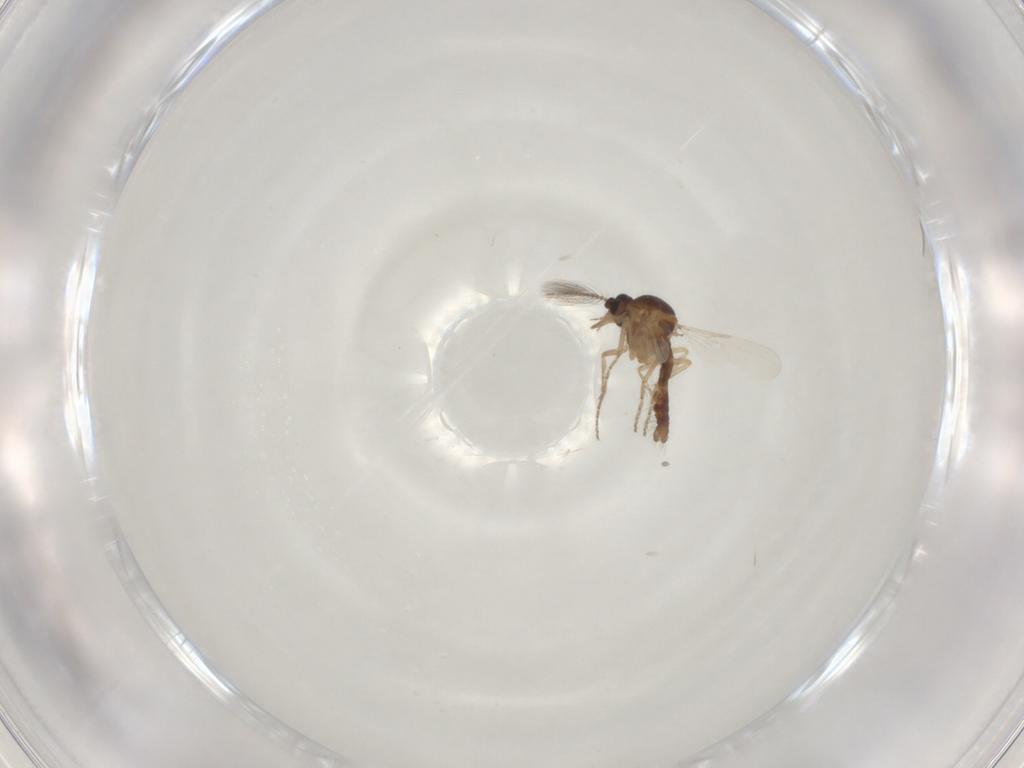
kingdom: Animalia
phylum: Arthropoda
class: Insecta
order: Diptera
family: Ceratopogonidae
